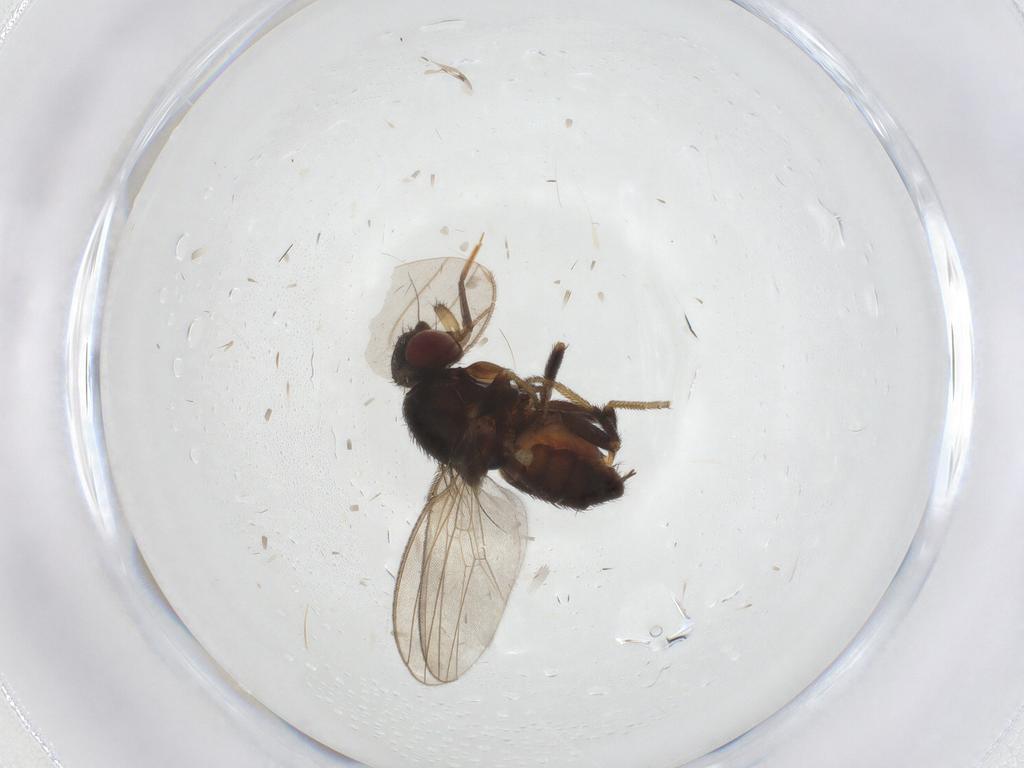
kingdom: Animalia
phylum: Arthropoda
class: Insecta
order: Diptera
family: Milichiidae
